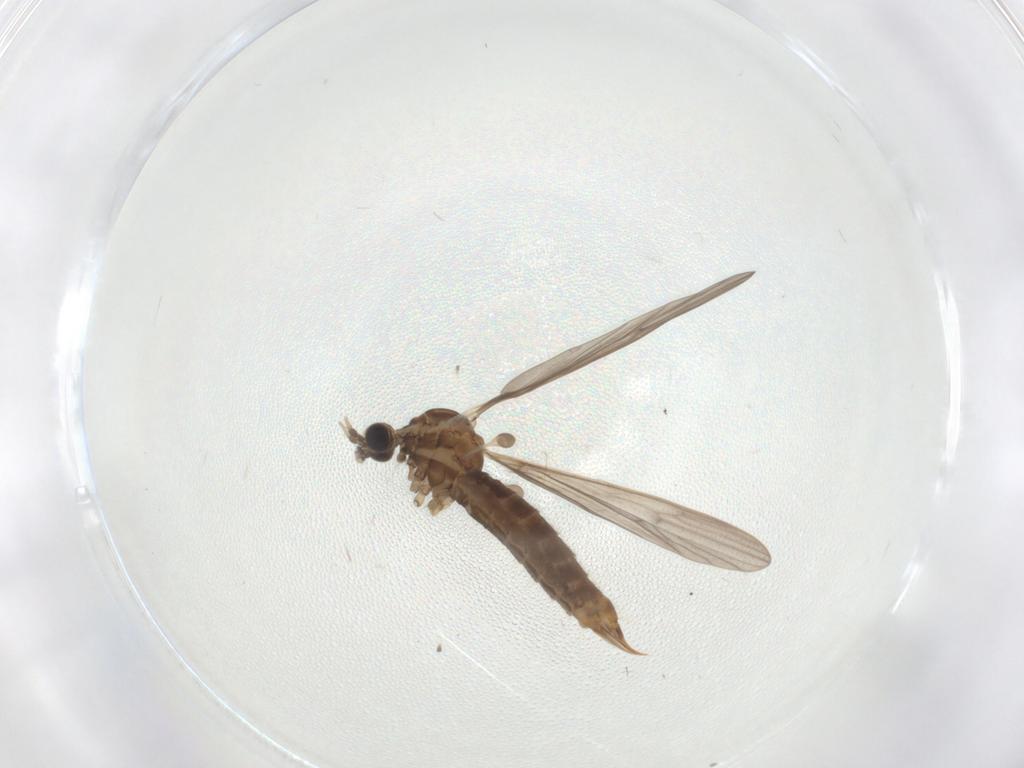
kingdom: Animalia
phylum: Arthropoda
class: Insecta
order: Diptera
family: Limoniidae
